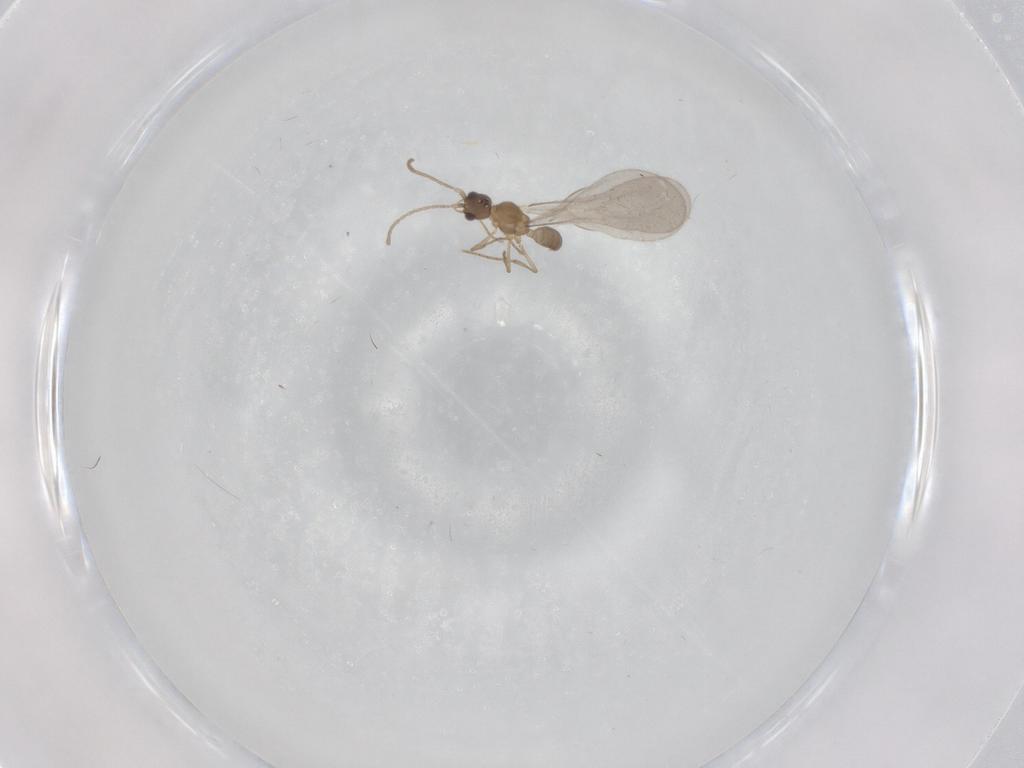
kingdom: Animalia
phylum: Arthropoda
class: Insecta
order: Hymenoptera
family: Formicidae
